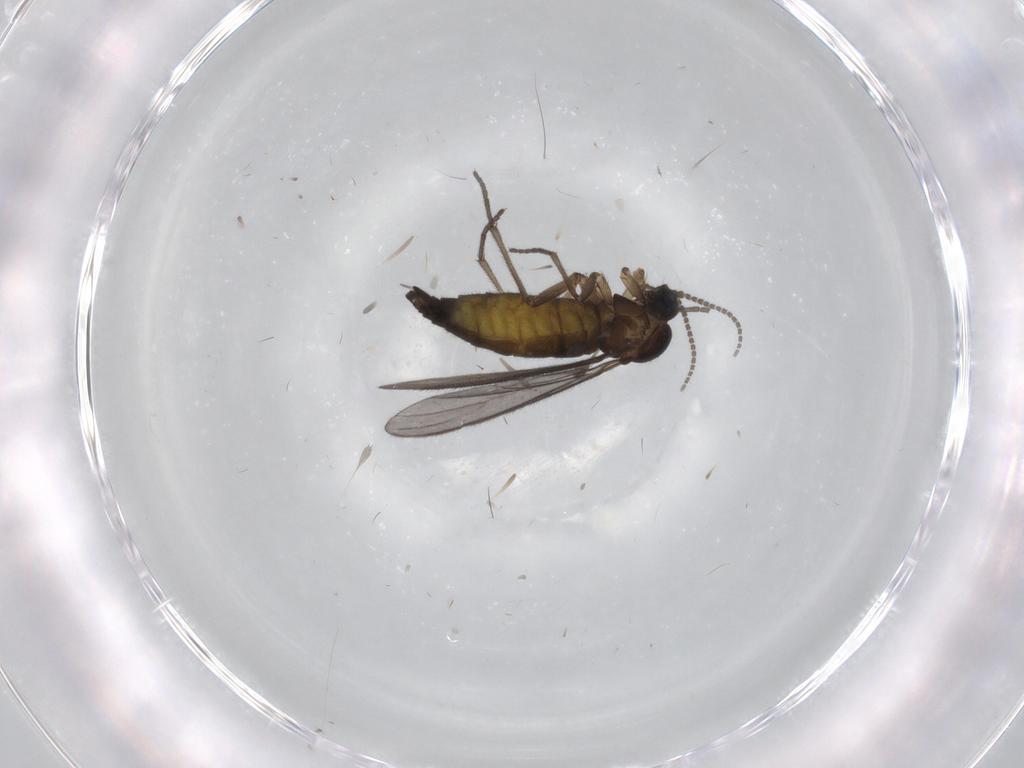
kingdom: Animalia
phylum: Arthropoda
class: Insecta
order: Diptera
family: Sciaridae
